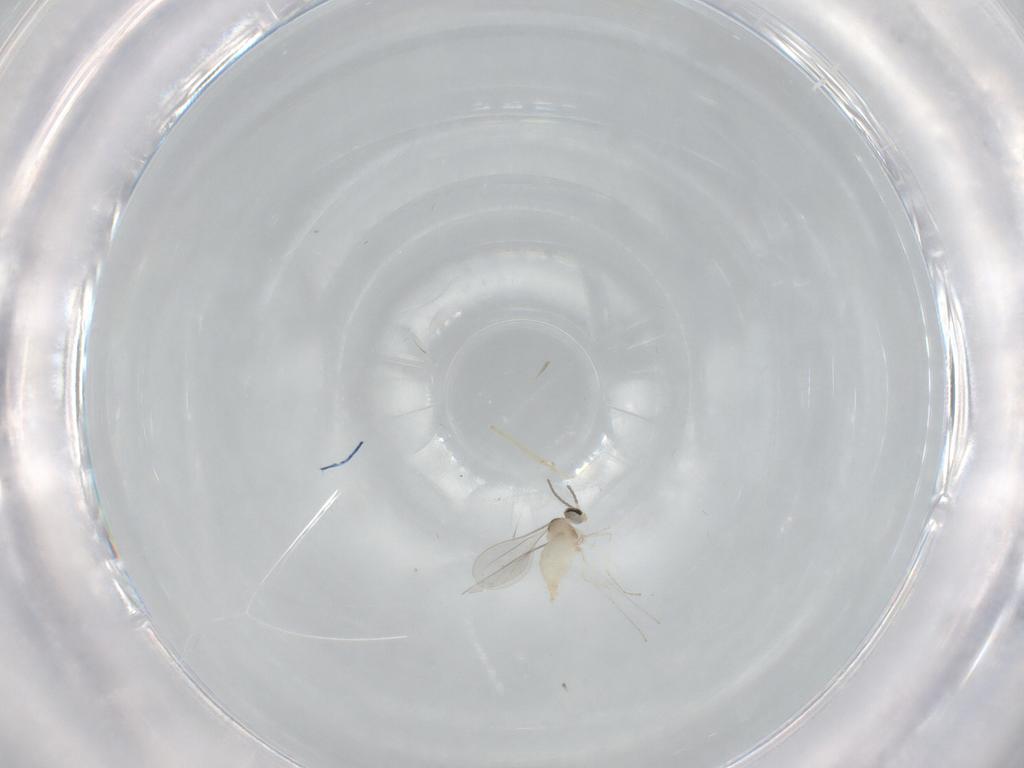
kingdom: Animalia
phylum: Arthropoda
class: Insecta
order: Diptera
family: Cecidomyiidae
